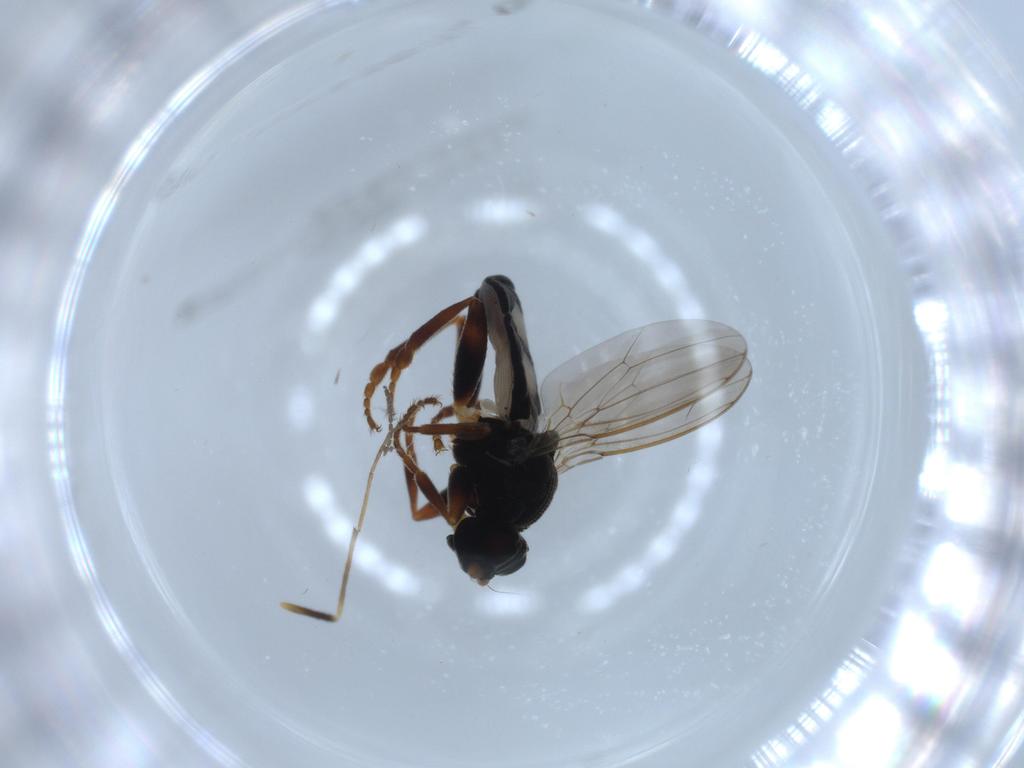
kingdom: Animalia
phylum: Arthropoda
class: Insecta
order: Diptera
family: Sphaeroceridae
